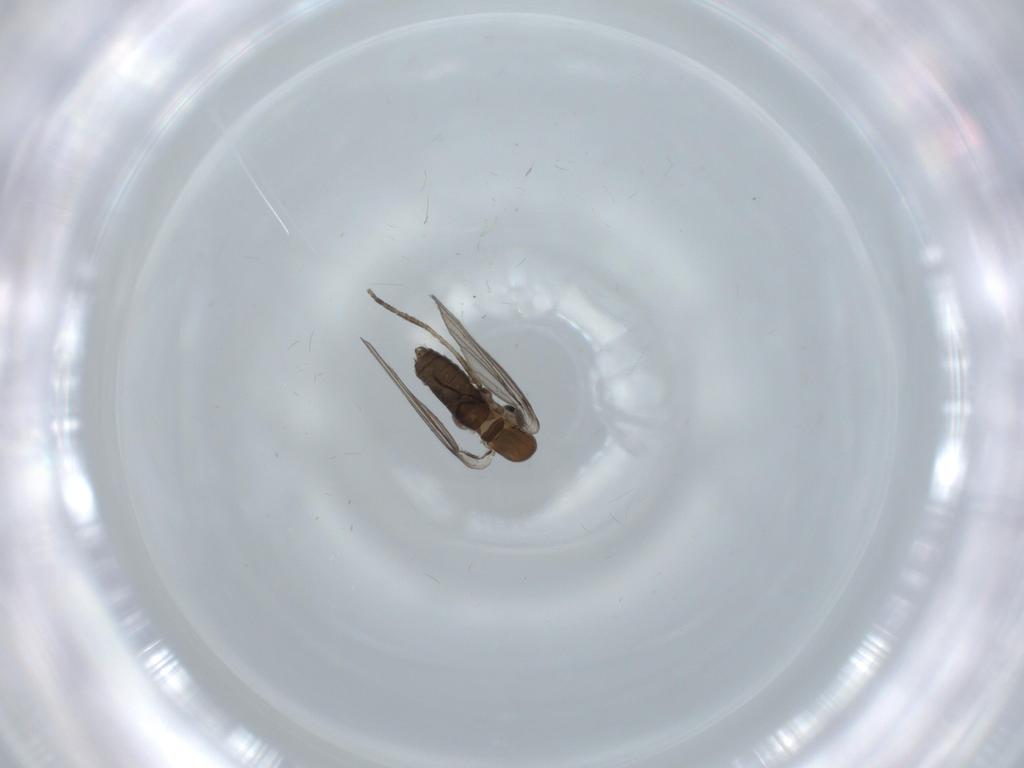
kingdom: Animalia
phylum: Arthropoda
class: Insecta
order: Diptera
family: Psychodidae
